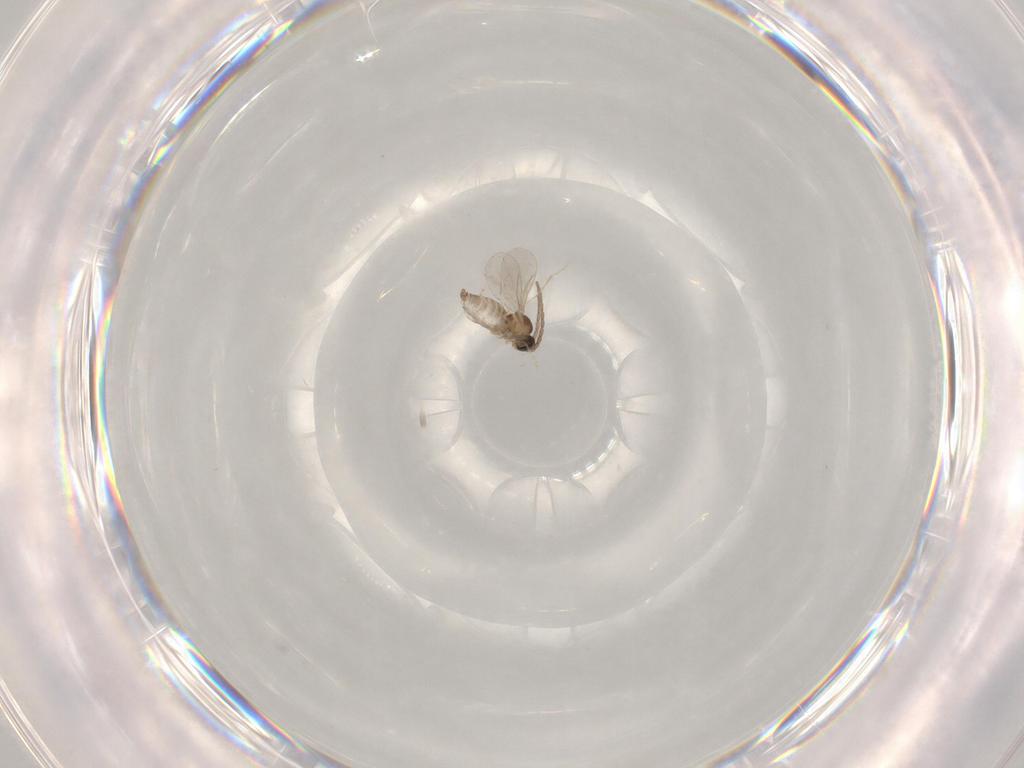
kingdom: Animalia
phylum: Arthropoda
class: Insecta
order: Diptera
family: Cecidomyiidae
